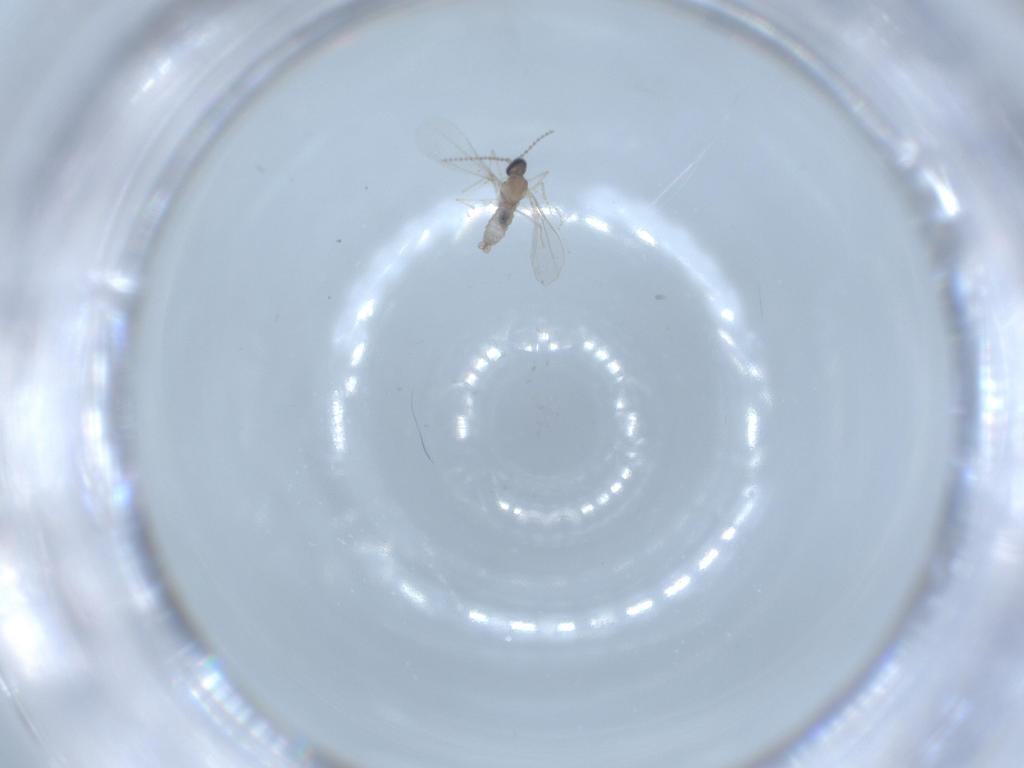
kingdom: Animalia
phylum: Arthropoda
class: Insecta
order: Diptera
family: Cecidomyiidae
